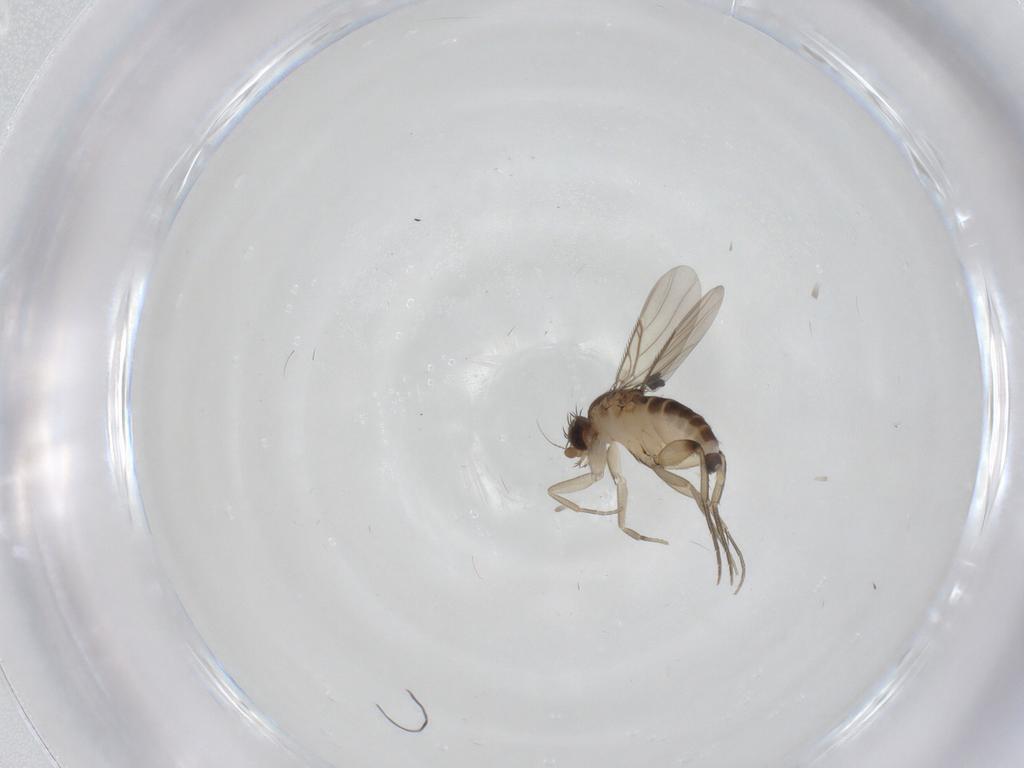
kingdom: Animalia
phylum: Arthropoda
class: Insecta
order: Diptera
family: Phoridae
